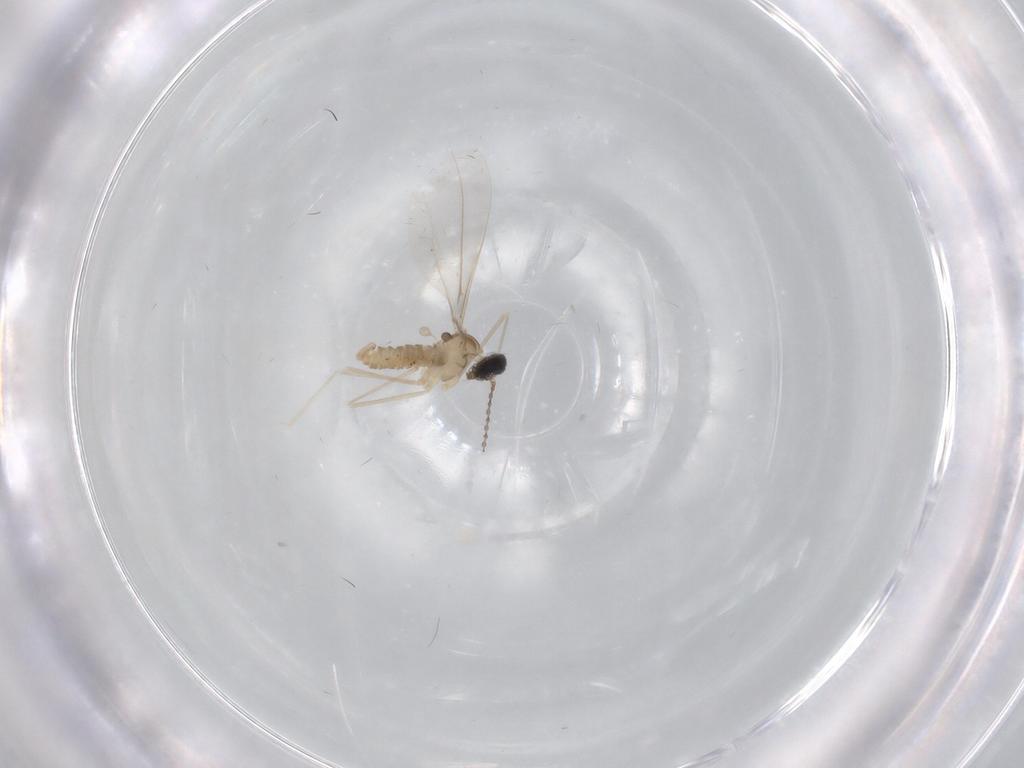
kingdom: Animalia
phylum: Arthropoda
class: Insecta
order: Diptera
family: Cecidomyiidae
